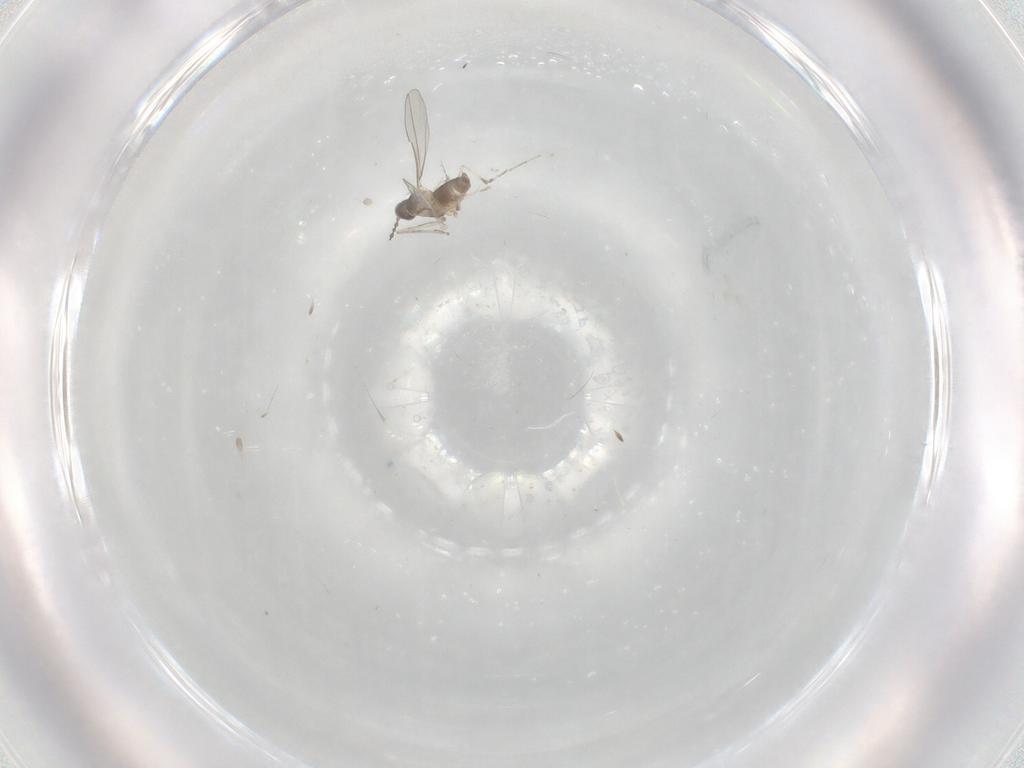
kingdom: Animalia
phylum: Arthropoda
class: Insecta
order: Diptera
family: Cecidomyiidae
